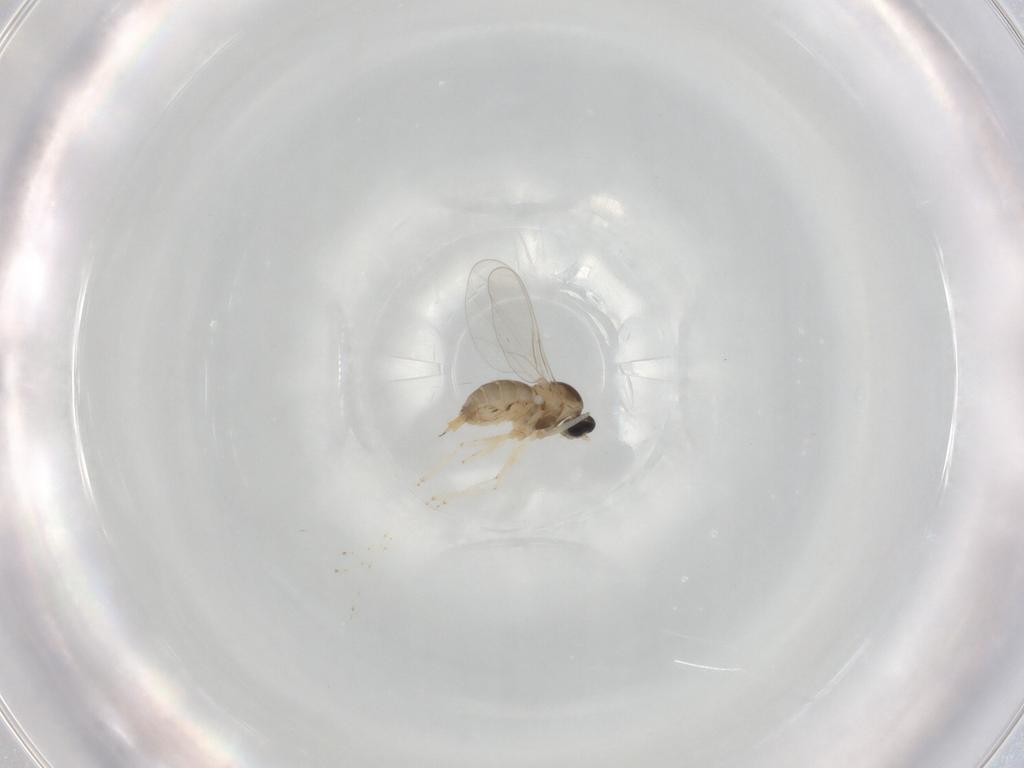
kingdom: Animalia
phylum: Arthropoda
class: Insecta
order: Diptera
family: Cecidomyiidae
